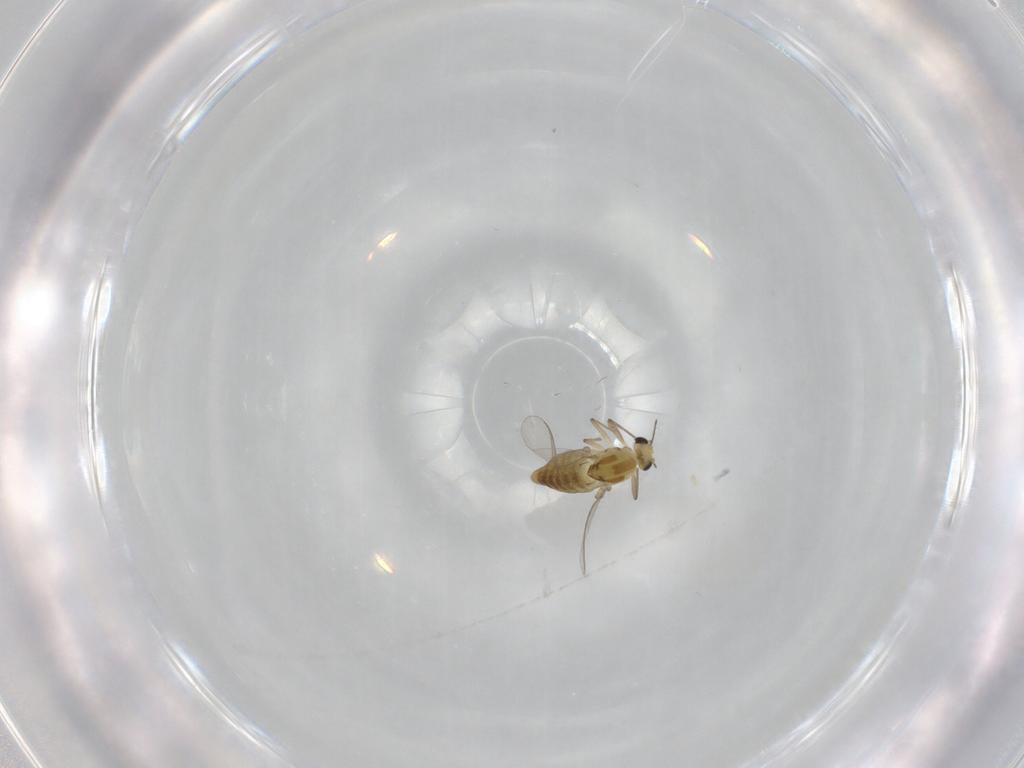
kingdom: Animalia
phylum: Arthropoda
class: Insecta
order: Diptera
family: Chironomidae
